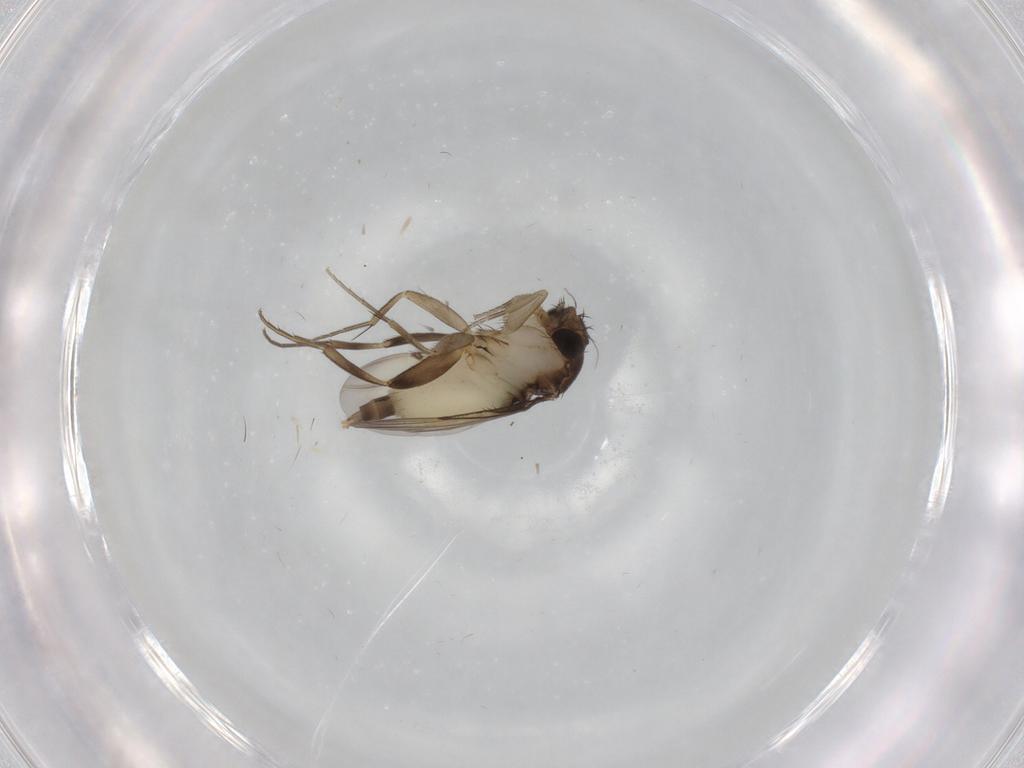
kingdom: Animalia
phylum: Arthropoda
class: Insecta
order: Diptera
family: Phoridae
